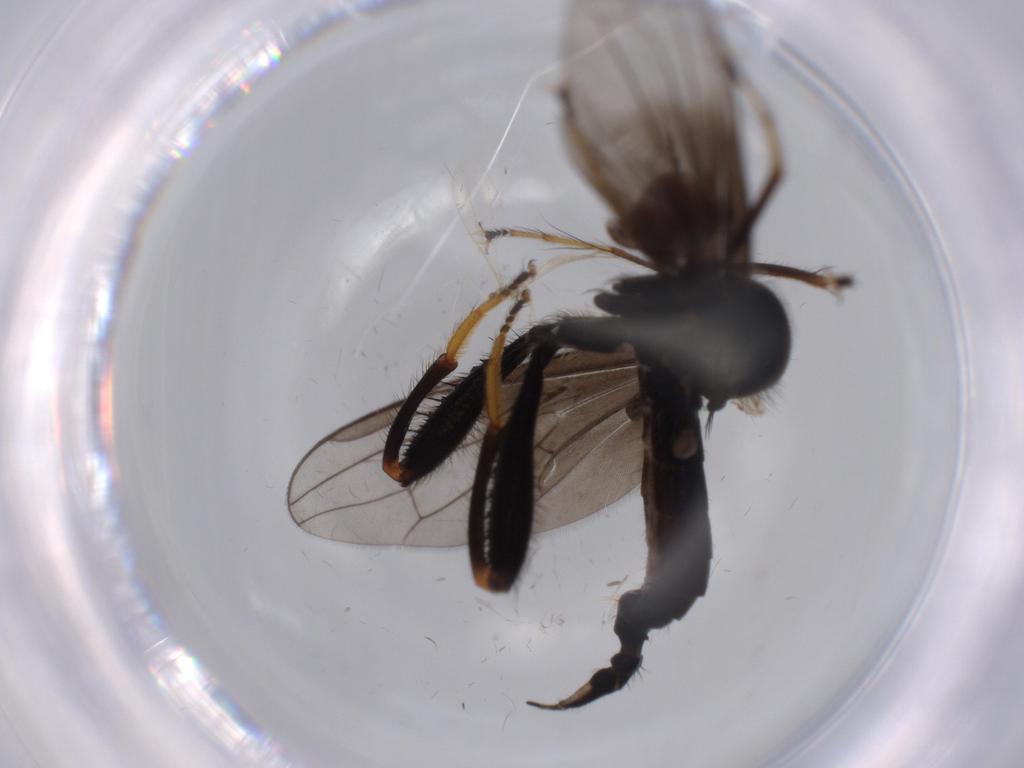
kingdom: Animalia
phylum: Arthropoda
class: Insecta
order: Diptera
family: Hybotidae
